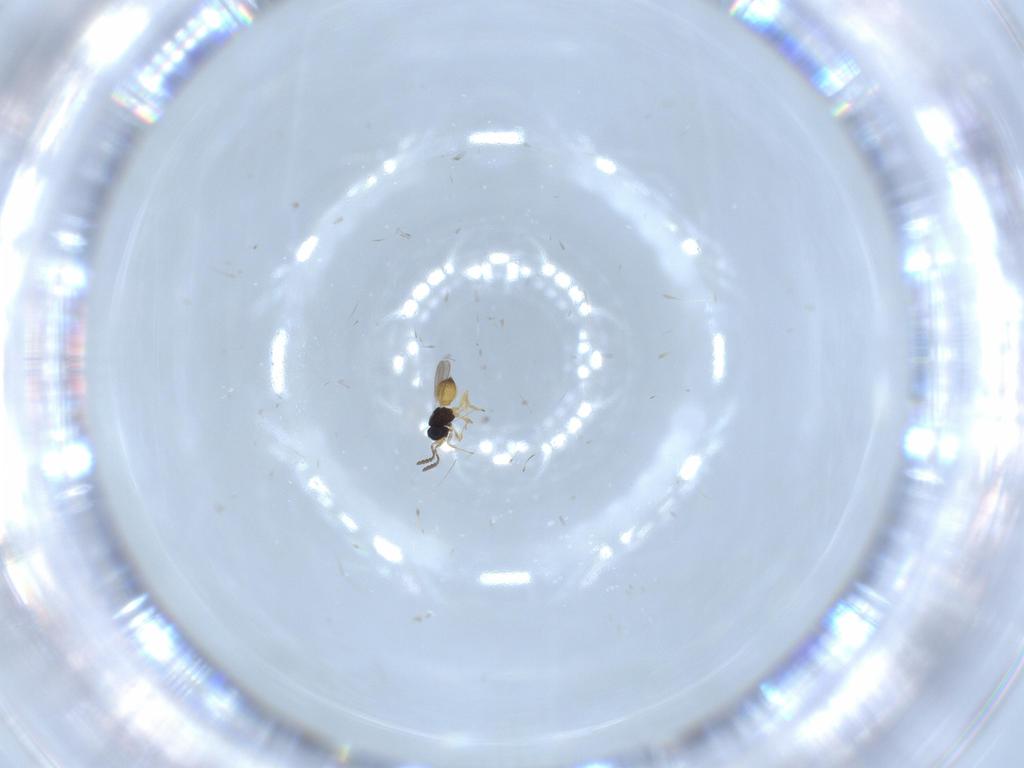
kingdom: Animalia
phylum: Arthropoda
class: Insecta
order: Hymenoptera
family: Scelionidae
